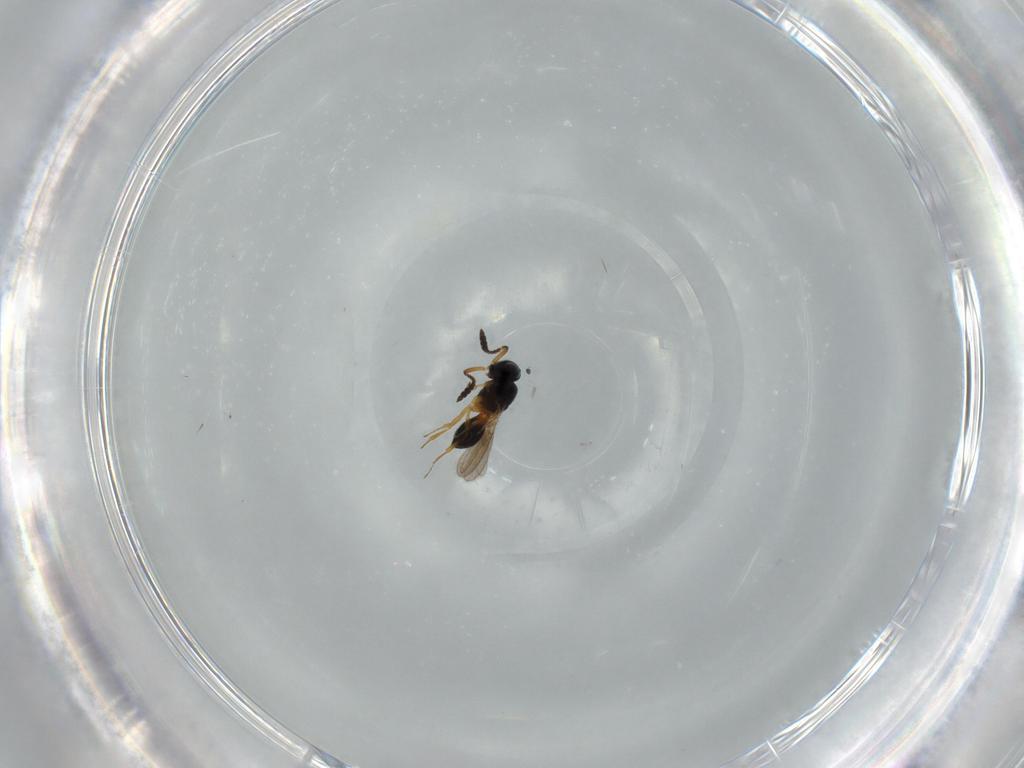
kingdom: Animalia
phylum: Arthropoda
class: Insecta
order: Hymenoptera
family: Scelionidae
